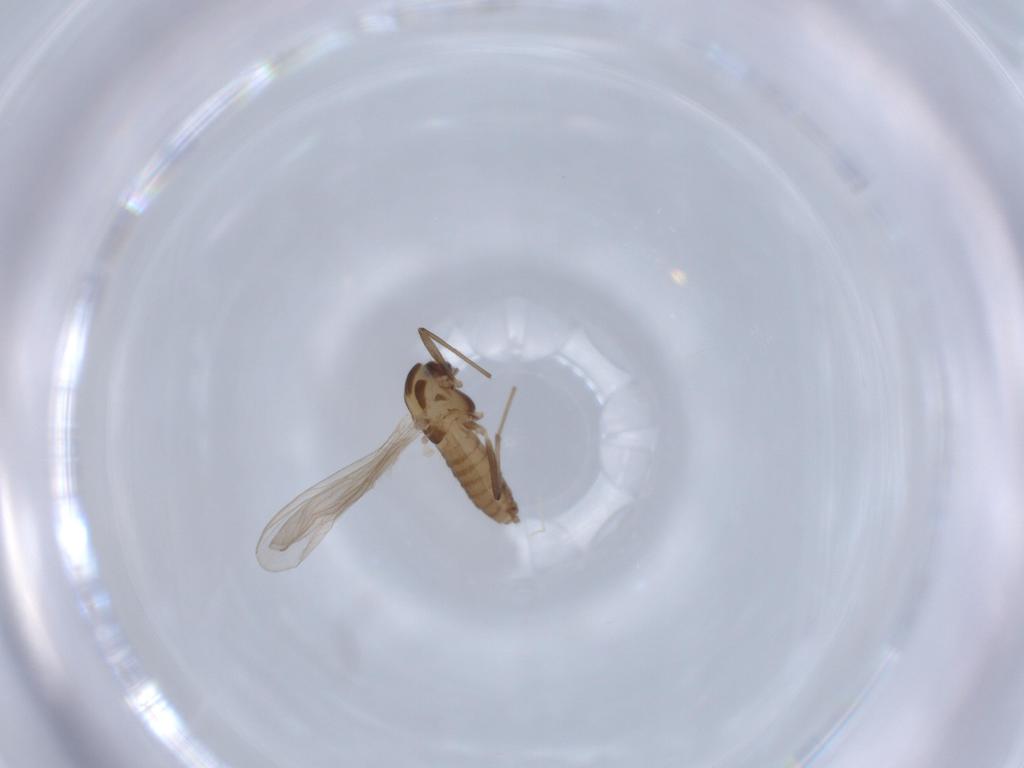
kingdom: Animalia
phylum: Arthropoda
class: Insecta
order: Diptera
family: Chironomidae
